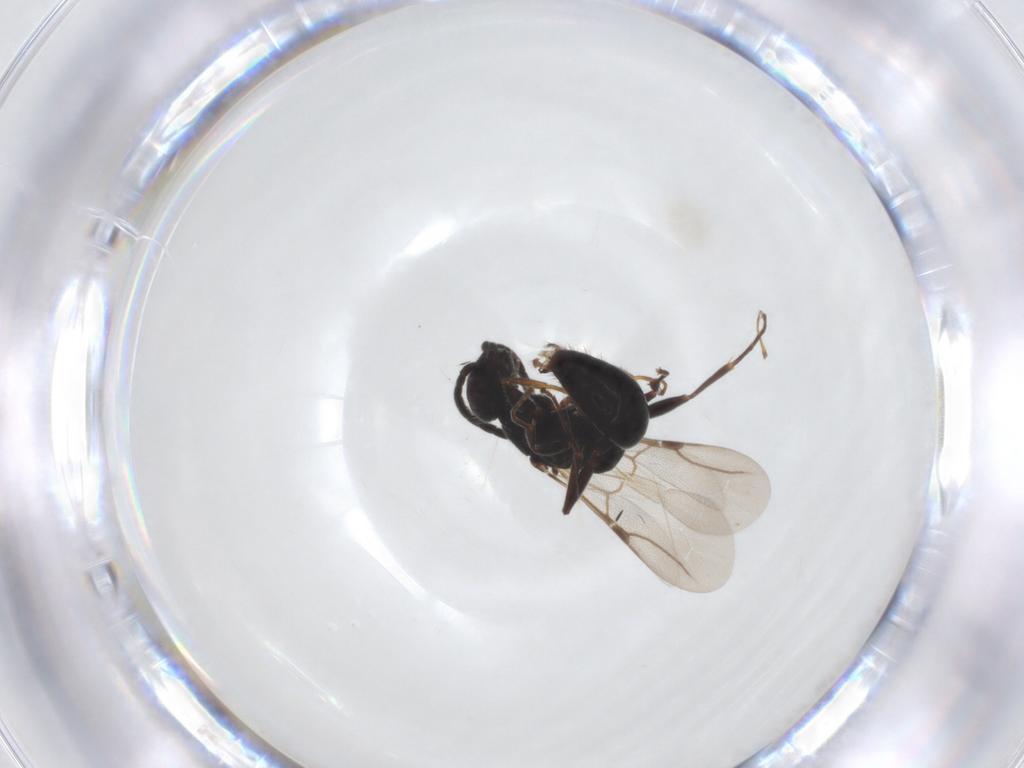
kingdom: Animalia
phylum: Arthropoda
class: Insecta
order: Hymenoptera
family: Bethylidae
